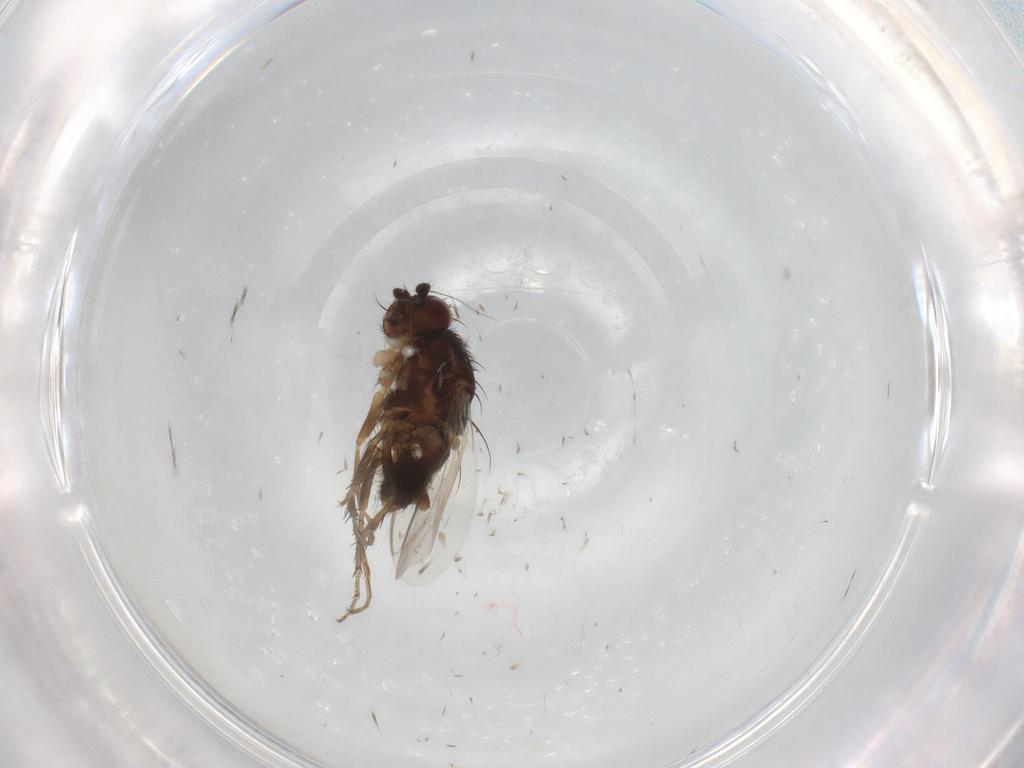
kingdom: Animalia
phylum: Arthropoda
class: Insecta
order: Diptera
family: Sphaeroceridae
